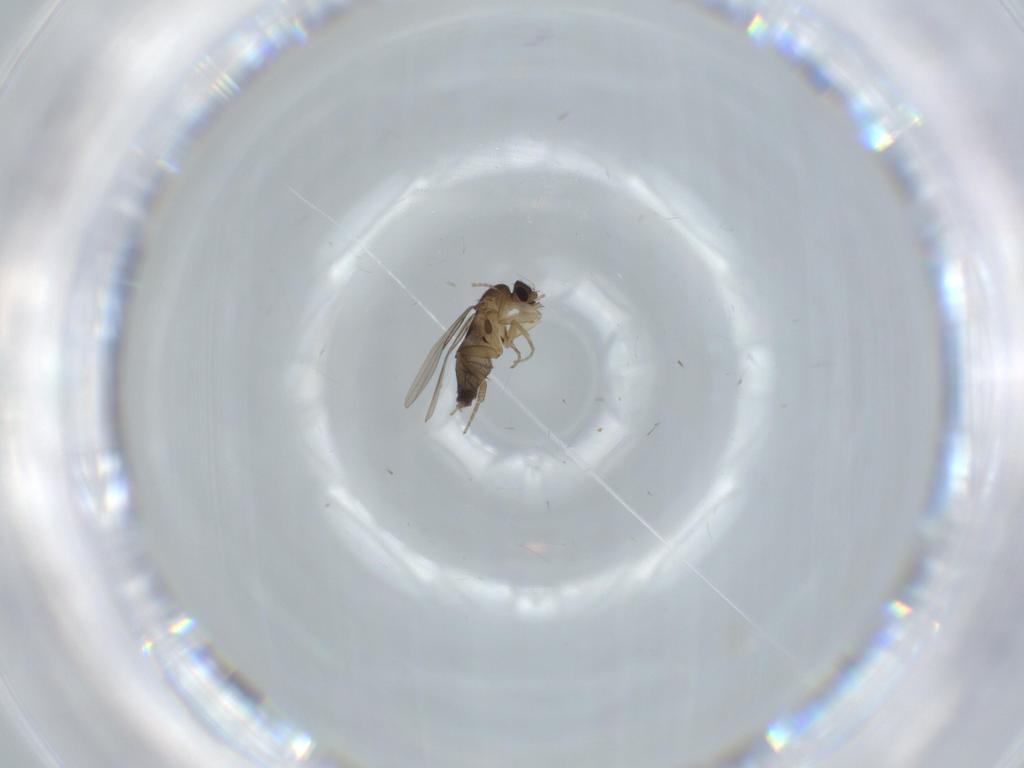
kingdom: Animalia
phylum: Arthropoda
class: Insecta
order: Diptera
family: Phoridae
